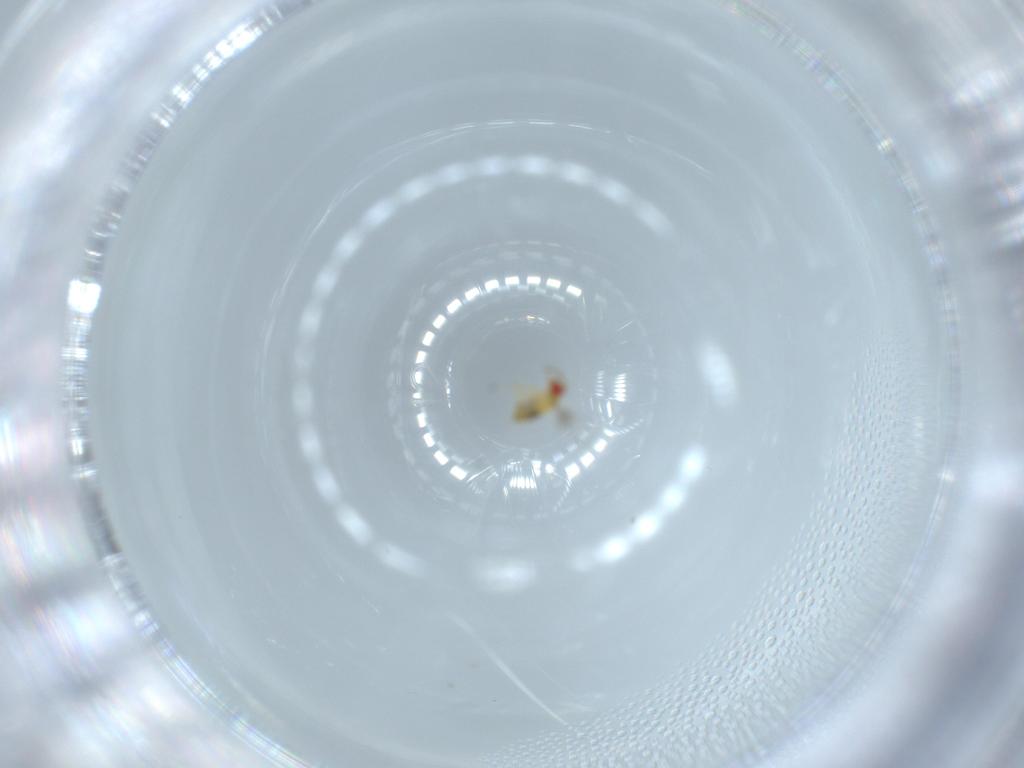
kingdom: Animalia
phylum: Arthropoda
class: Insecta
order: Hymenoptera
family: Trichogrammatidae
